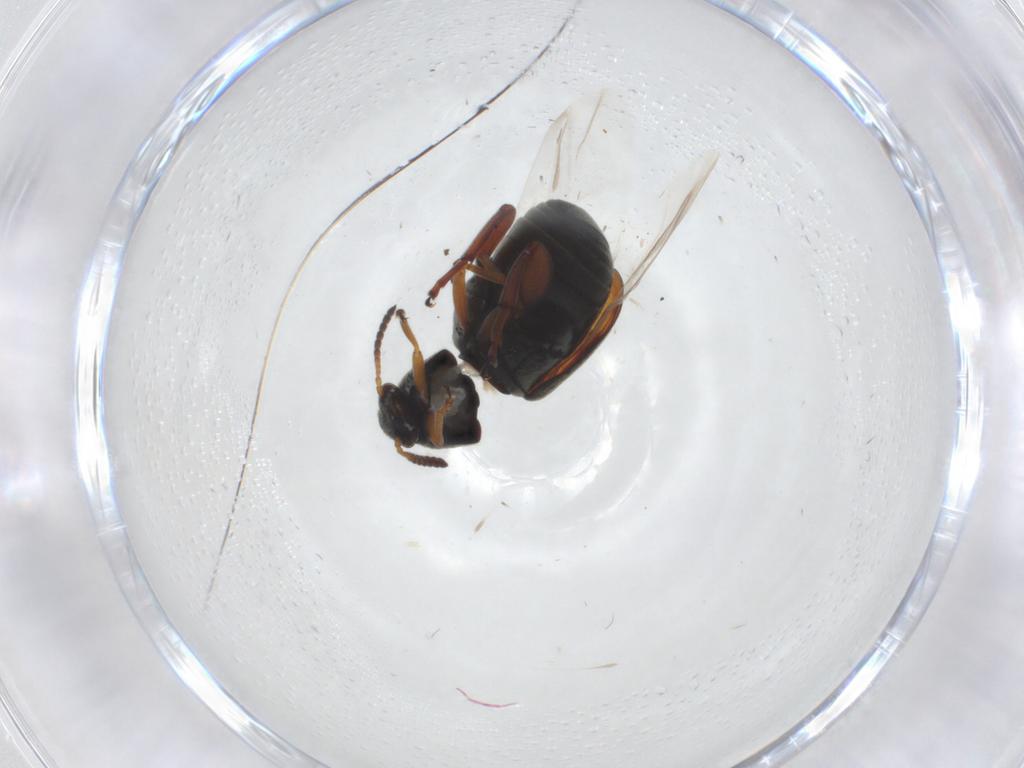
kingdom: Animalia
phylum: Arthropoda
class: Insecta
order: Coleoptera
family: Chrysomelidae
